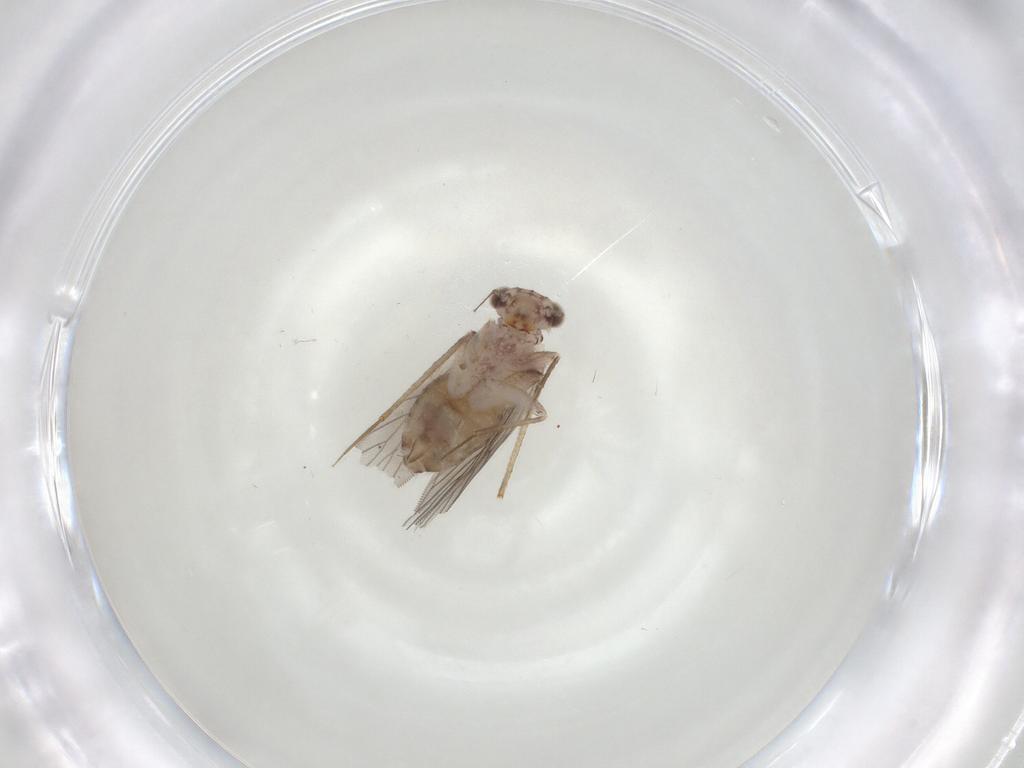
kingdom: Animalia
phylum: Arthropoda
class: Insecta
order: Psocodea
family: Lepidopsocidae
